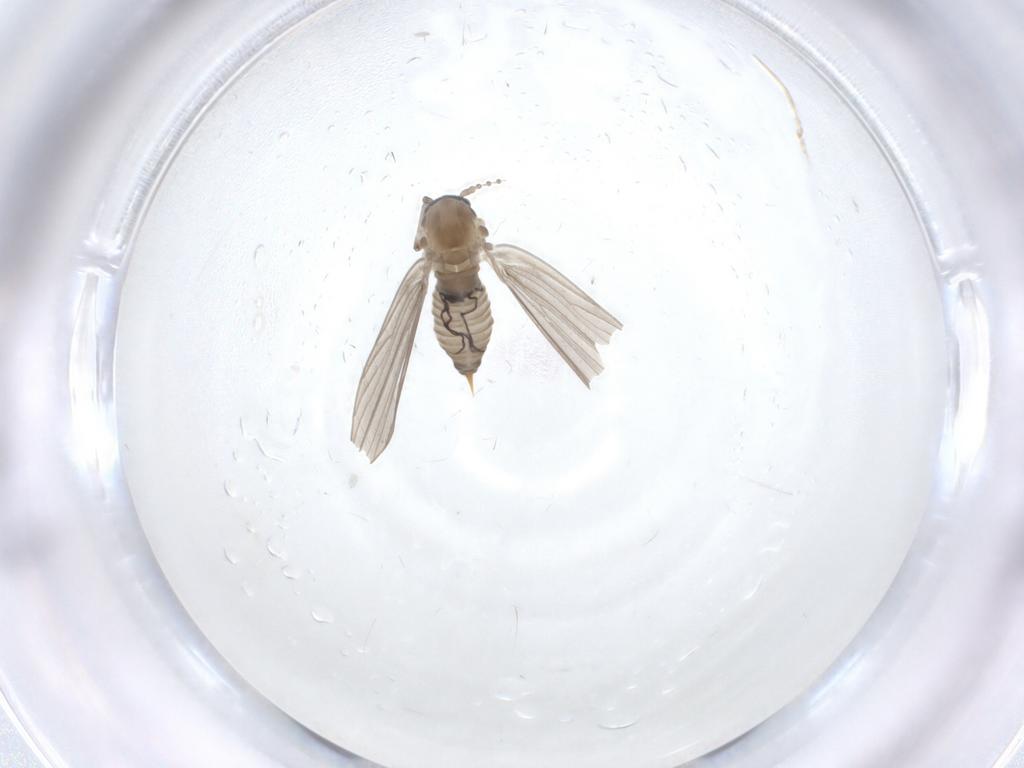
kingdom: Animalia
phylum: Arthropoda
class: Insecta
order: Diptera
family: Psychodidae
